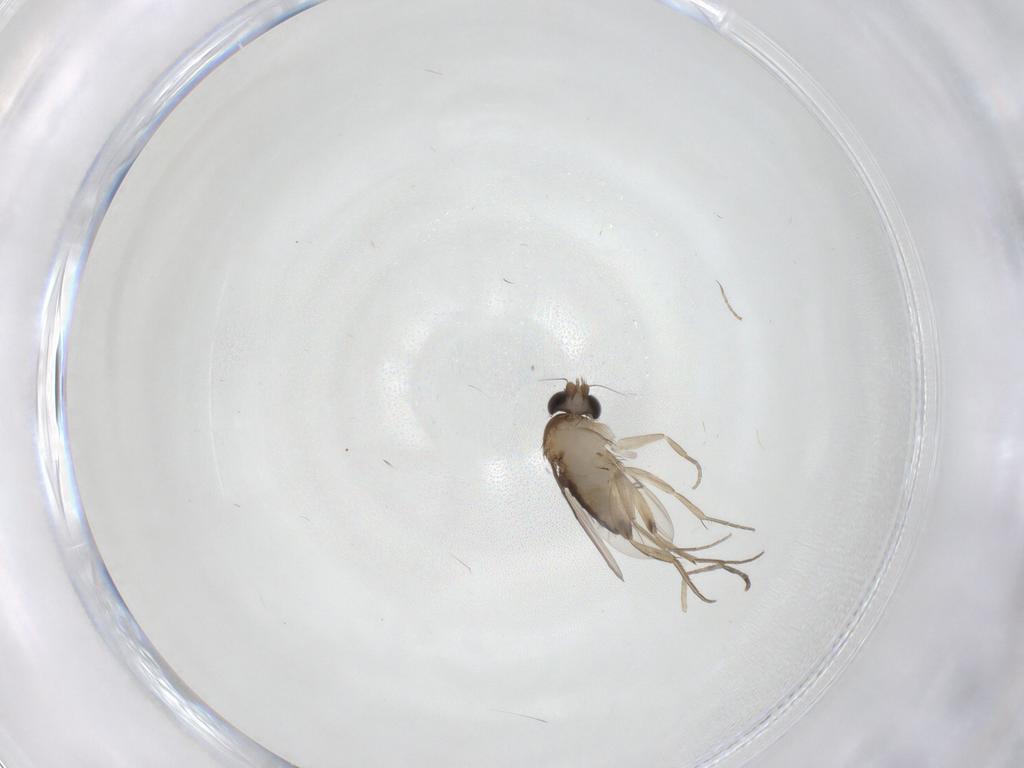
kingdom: Animalia
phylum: Arthropoda
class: Insecta
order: Diptera
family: Phoridae
